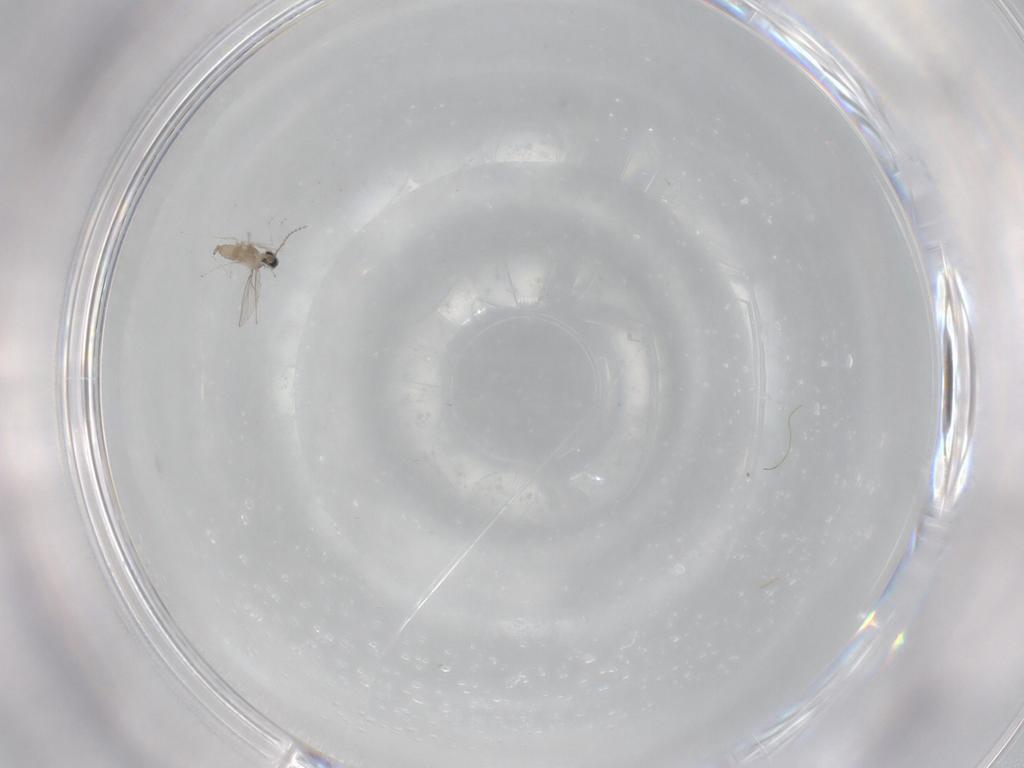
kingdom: Animalia
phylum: Arthropoda
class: Insecta
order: Diptera
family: Cecidomyiidae
